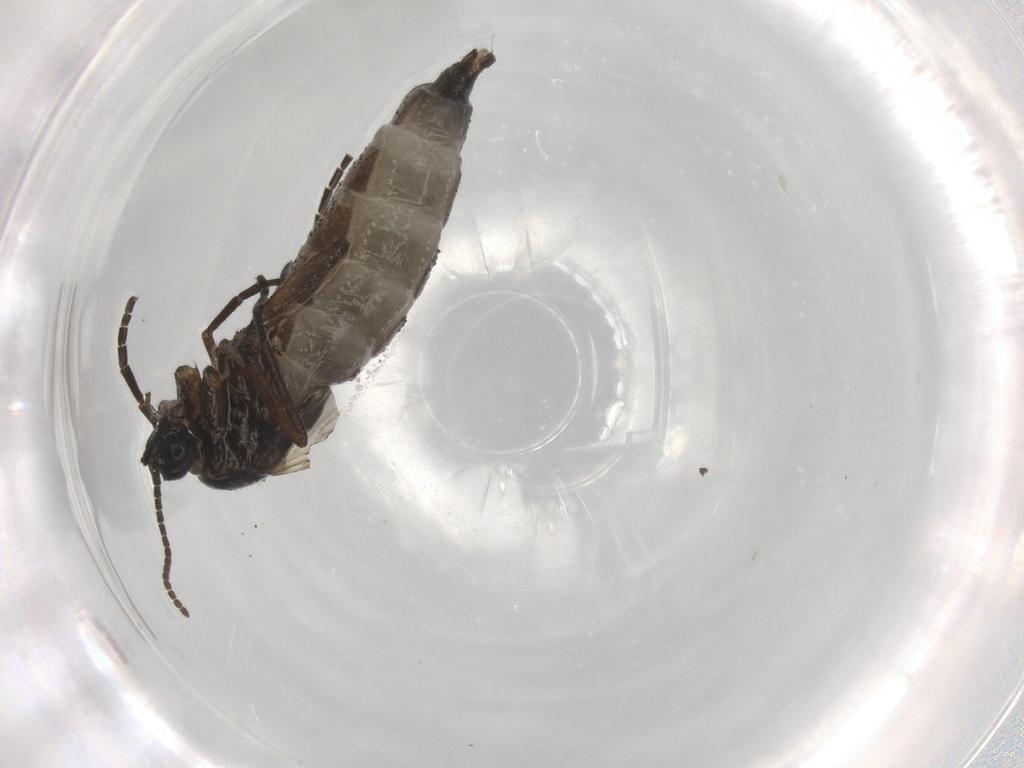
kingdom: Animalia
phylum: Arthropoda
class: Insecta
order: Diptera
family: Sciaridae
